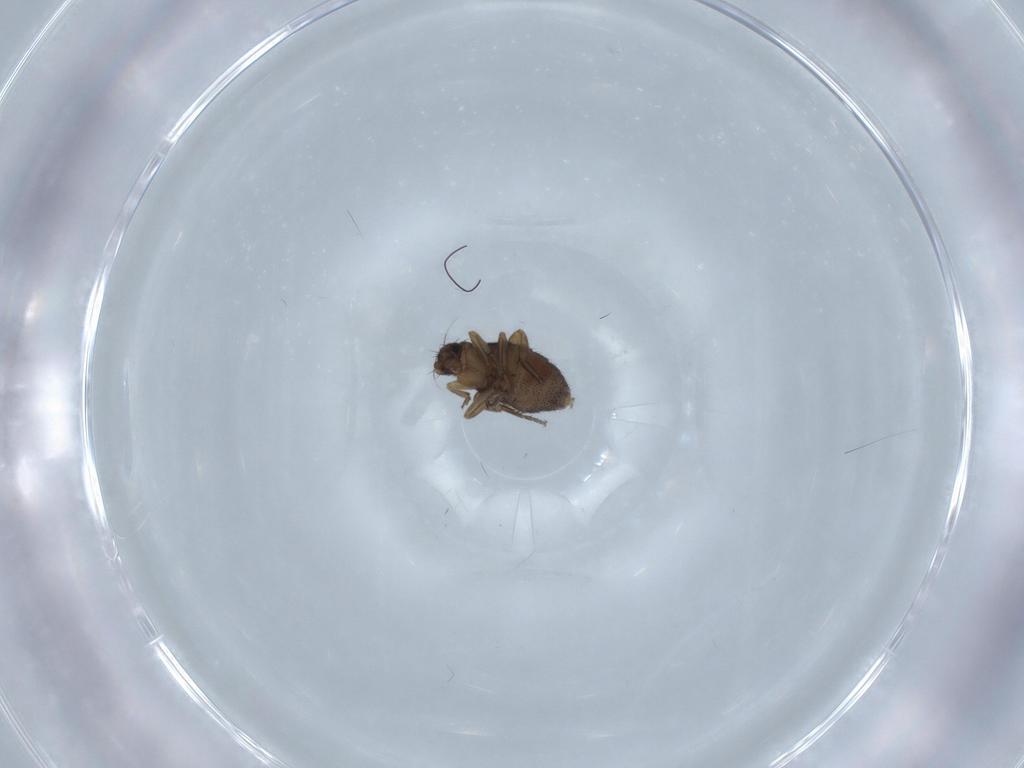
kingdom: Animalia
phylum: Arthropoda
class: Insecta
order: Diptera
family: Phoridae
